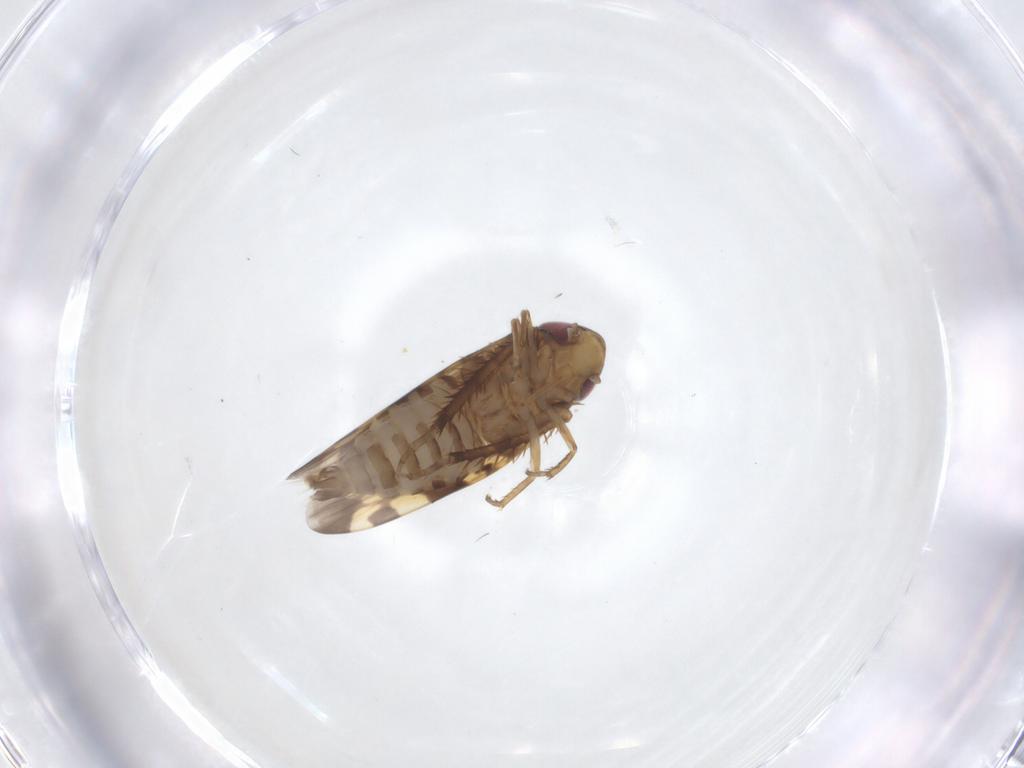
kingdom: Animalia
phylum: Arthropoda
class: Insecta
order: Hemiptera
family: Cicadellidae
